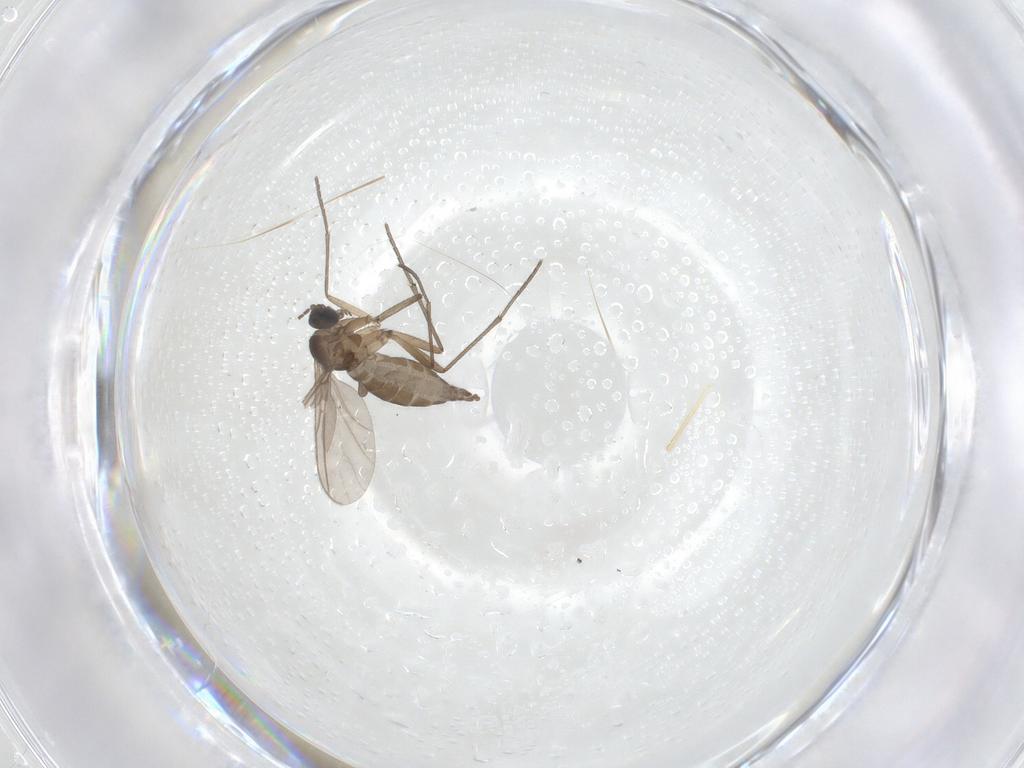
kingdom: Animalia
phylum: Arthropoda
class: Insecta
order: Diptera
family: Sciaridae
